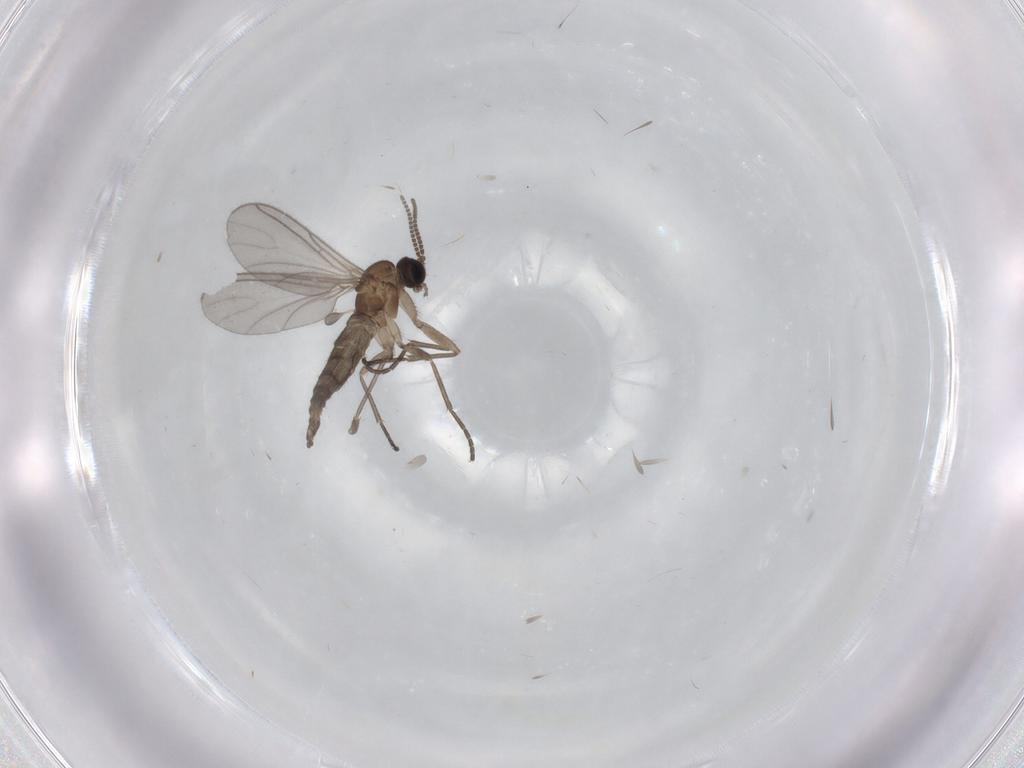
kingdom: Animalia
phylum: Arthropoda
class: Insecta
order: Diptera
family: Sciaridae
